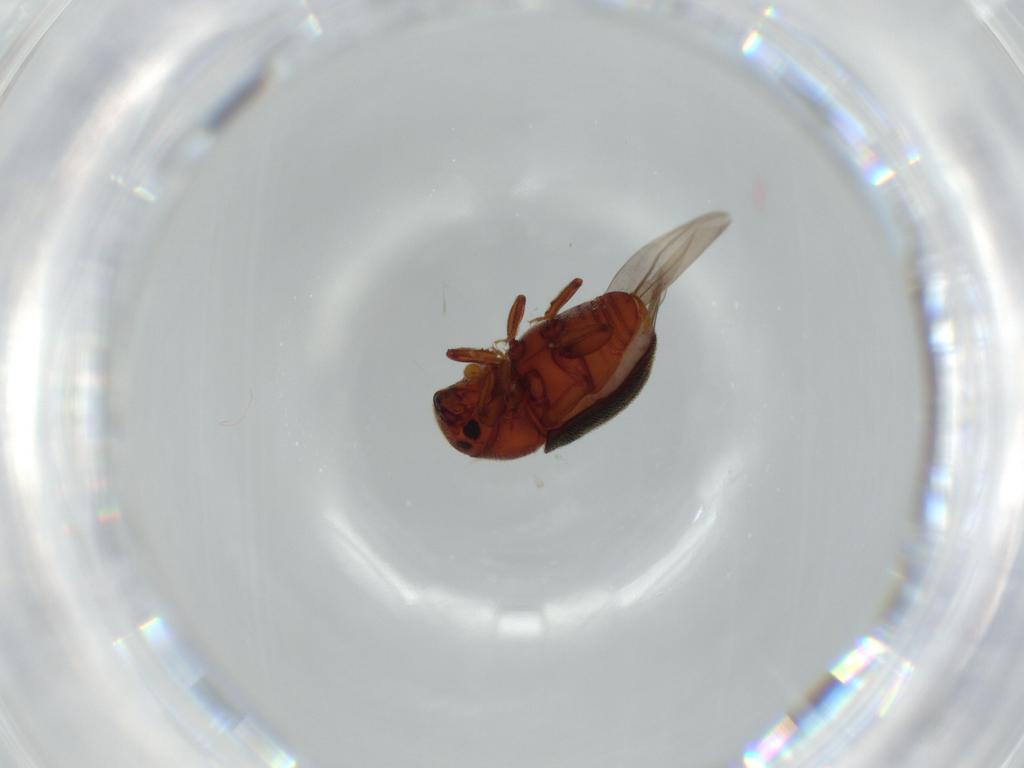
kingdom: Animalia
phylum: Arthropoda
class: Insecta
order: Coleoptera
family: Curculionidae
